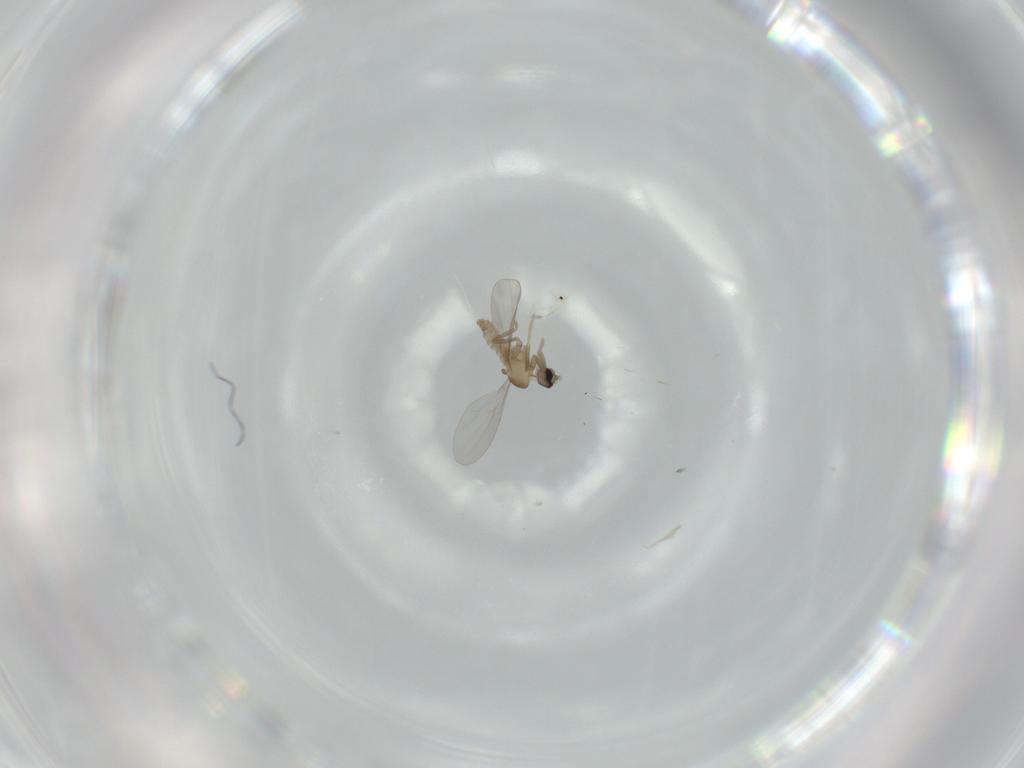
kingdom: Animalia
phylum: Arthropoda
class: Insecta
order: Diptera
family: Cecidomyiidae
